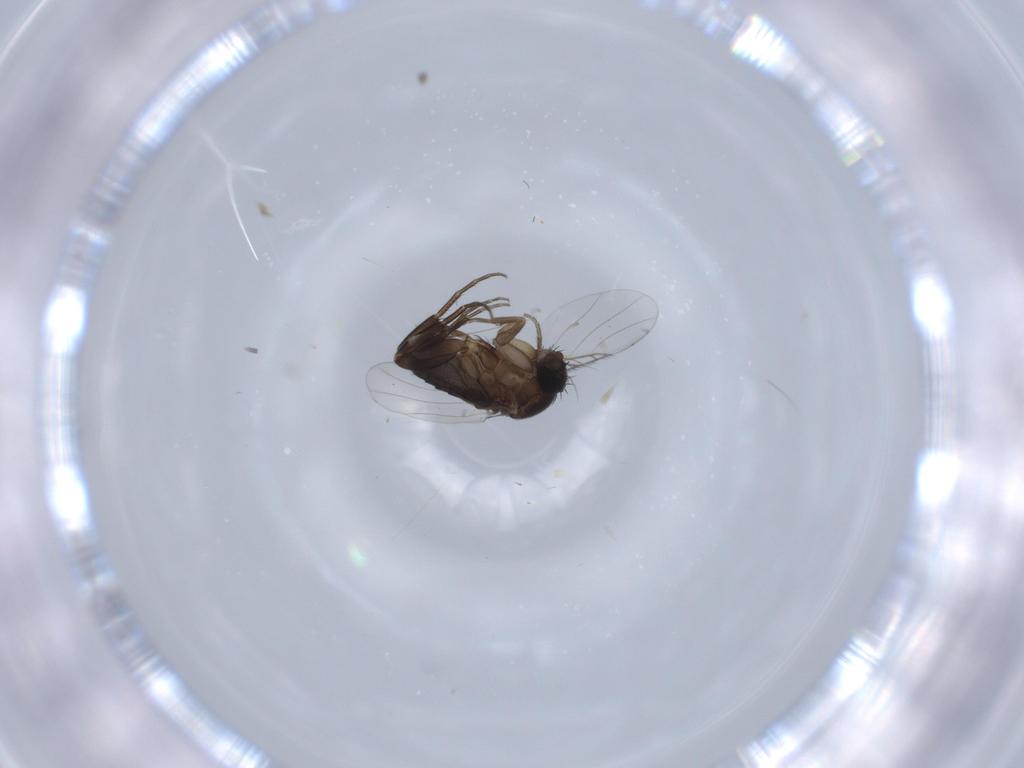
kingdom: Animalia
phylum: Arthropoda
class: Insecta
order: Diptera
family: Phoridae
